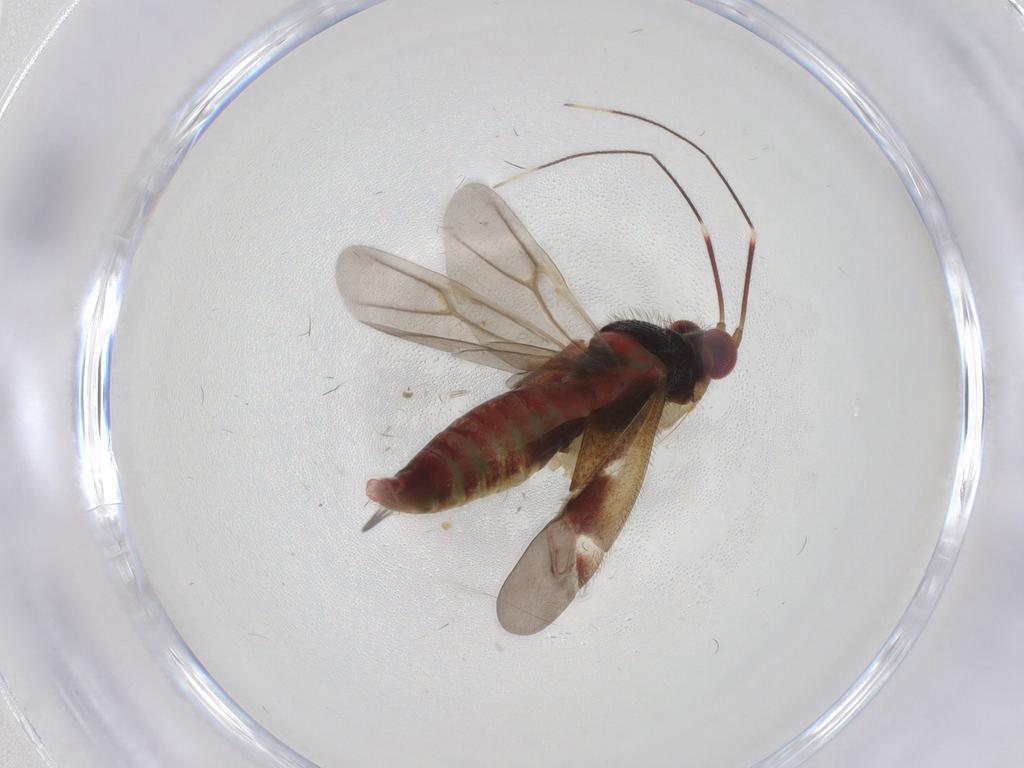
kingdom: Animalia
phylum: Arthropoda
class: Insecta
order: Hemiptera
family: Miridae
